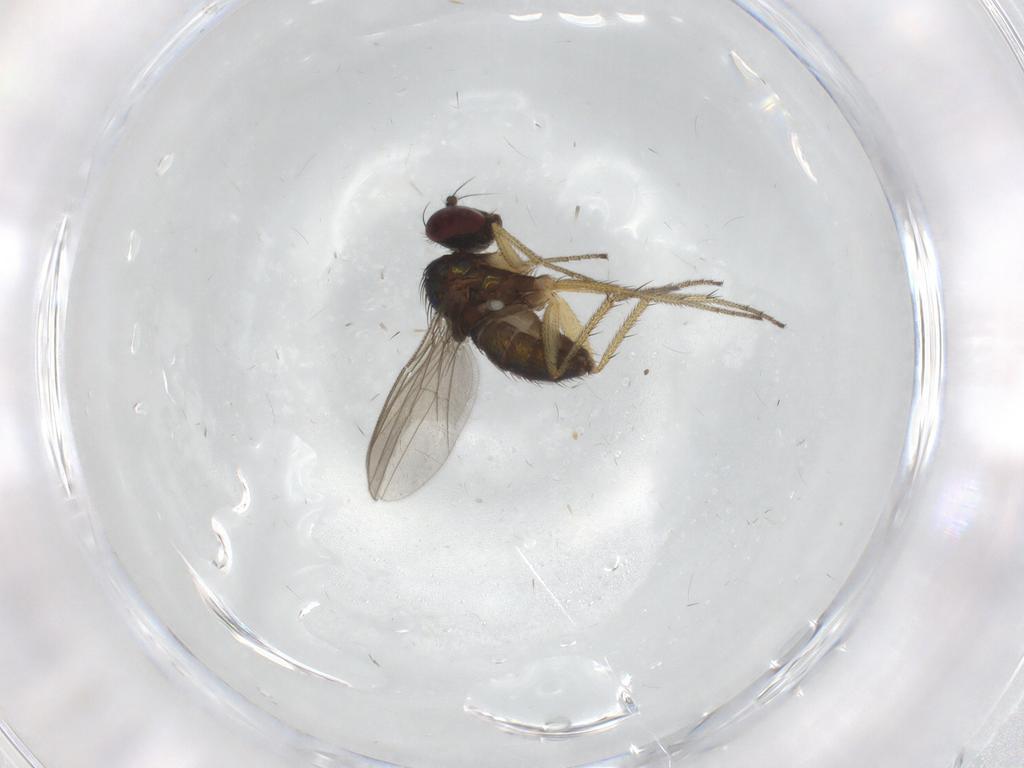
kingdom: Animalia
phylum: Arthropoda
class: Insecta
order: Diptera
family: Dolichopodidae
